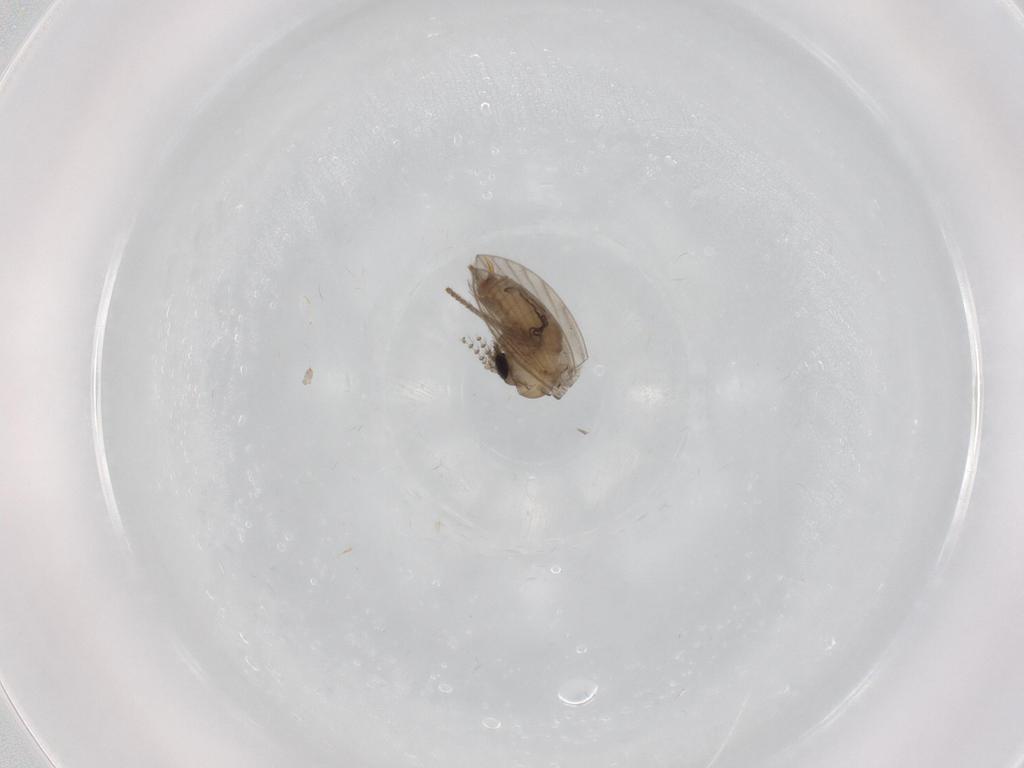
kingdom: Animalia
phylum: Arthropoda
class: Insecta
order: Diptera
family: Psychodidae
